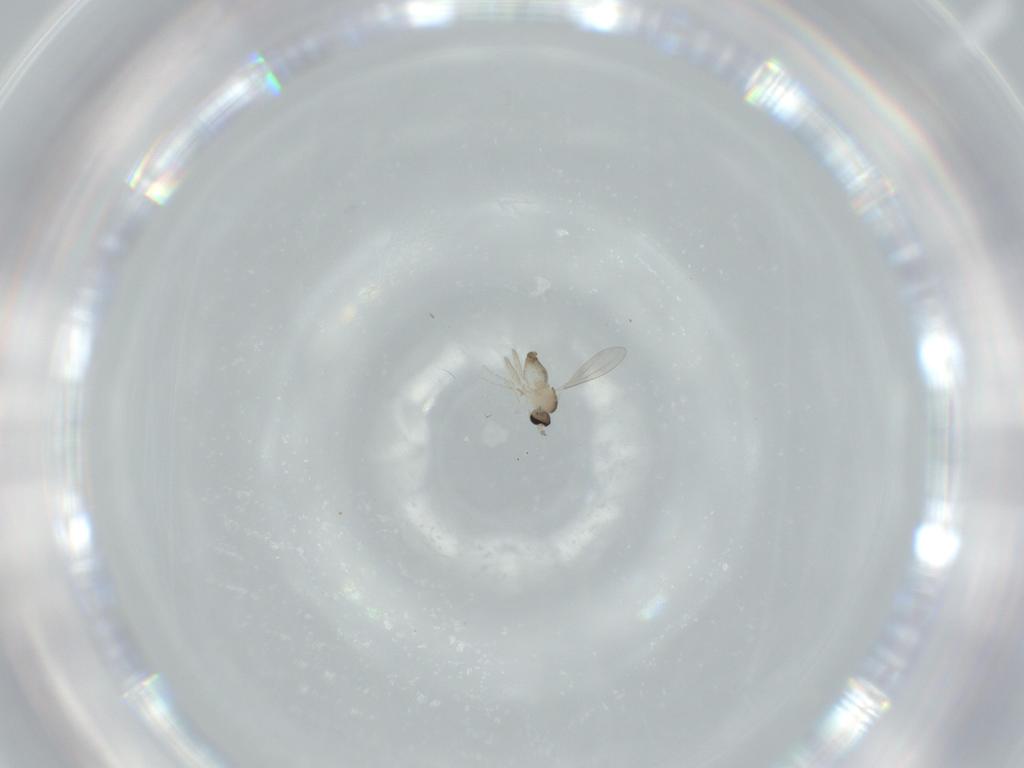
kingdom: Animalia
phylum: Arthropoda
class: Insecta
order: Diptera
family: Cecidomyiidae
